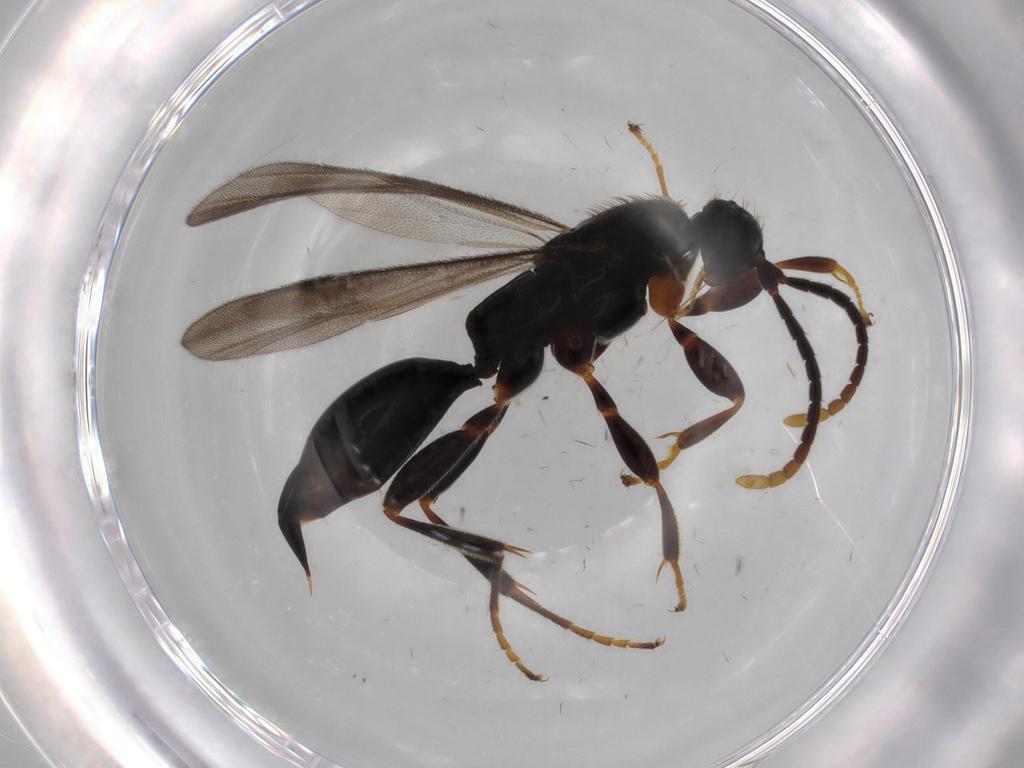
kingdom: Animalia
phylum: Arthropoda
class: Insecta
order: Hymenoptera
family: Proctotrupidae
